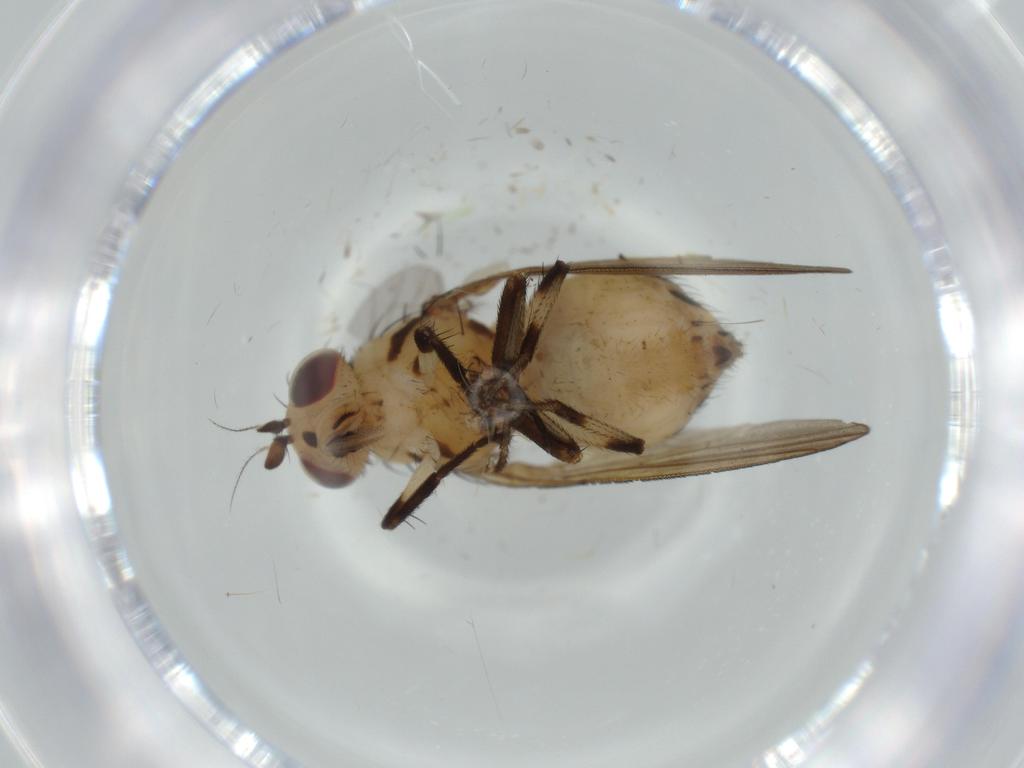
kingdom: Animalia
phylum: Arthropoda
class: Insecta
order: Diptera
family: Lauxaniidae
